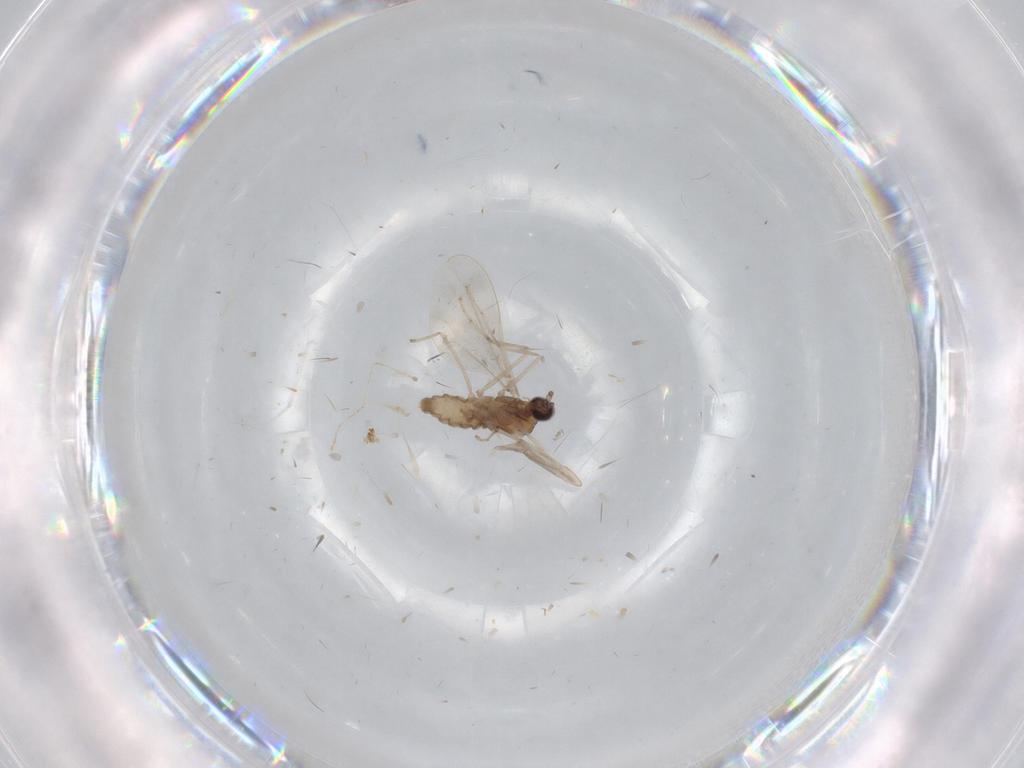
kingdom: Animalia
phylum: Arthropoda
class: Insecta
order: Diptera
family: Cecidomyiidae
